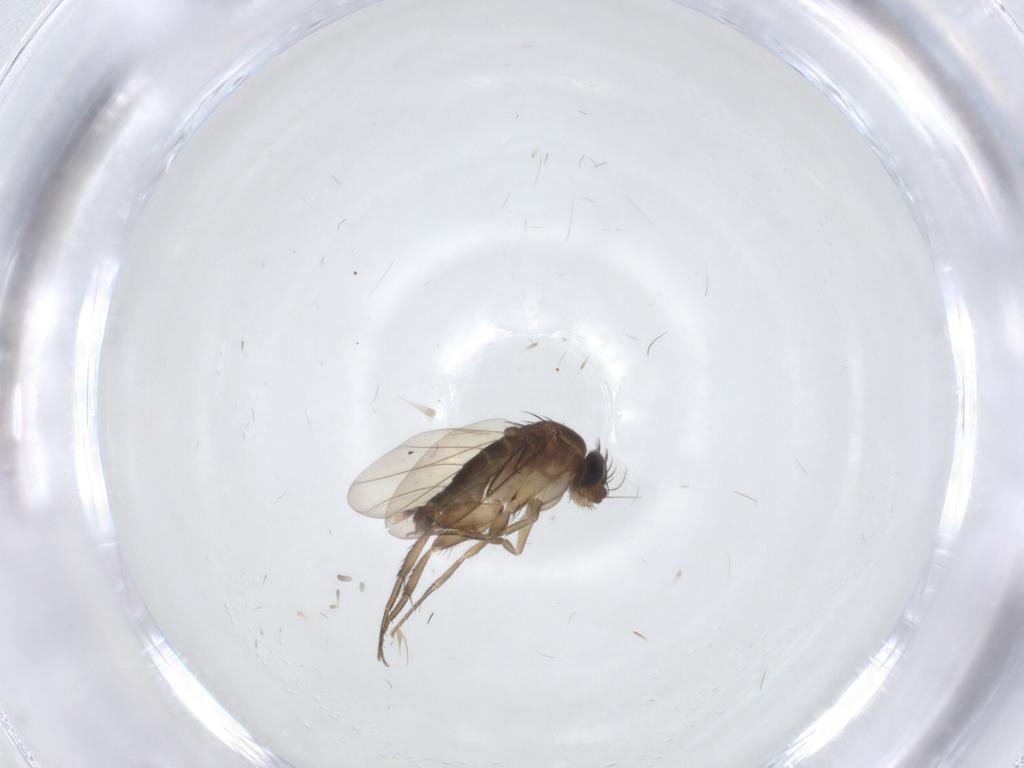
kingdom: Animalia
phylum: Arthropoda
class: Insecta
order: Diptera
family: Phoridae
